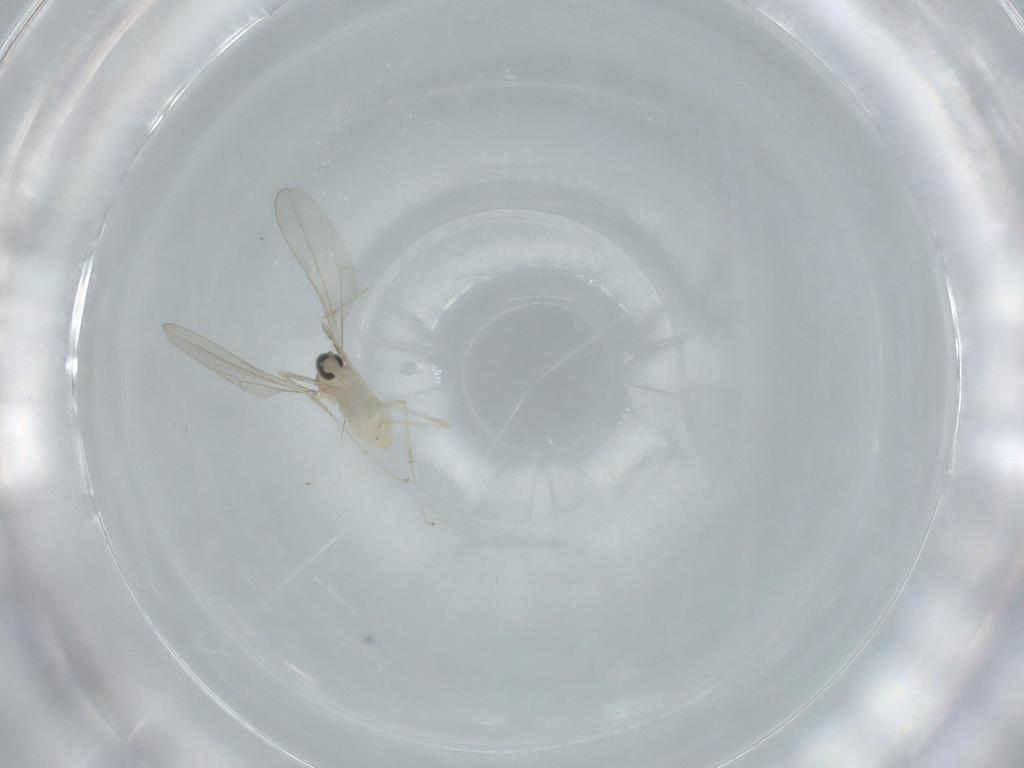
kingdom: Animalia
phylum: Arthropoda
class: Insecta
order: Diptera
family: Cecidomyiidae
